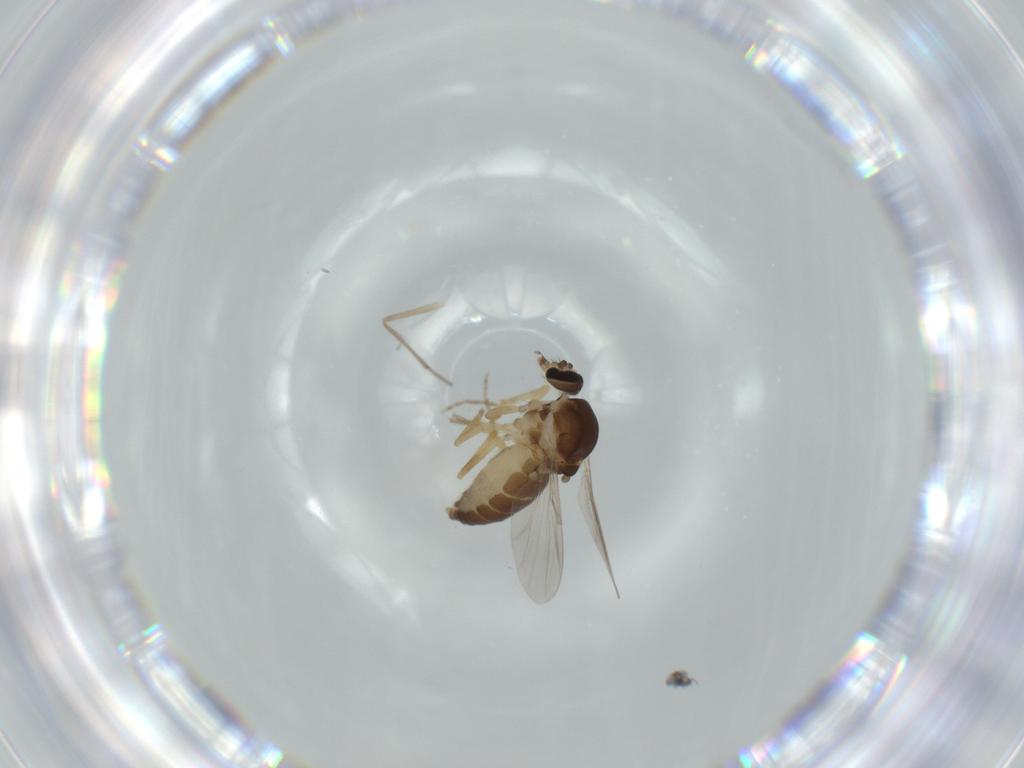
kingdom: Animalia
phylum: Arthropoda
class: Insecta
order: Diptera
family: Ceratopogonidae
